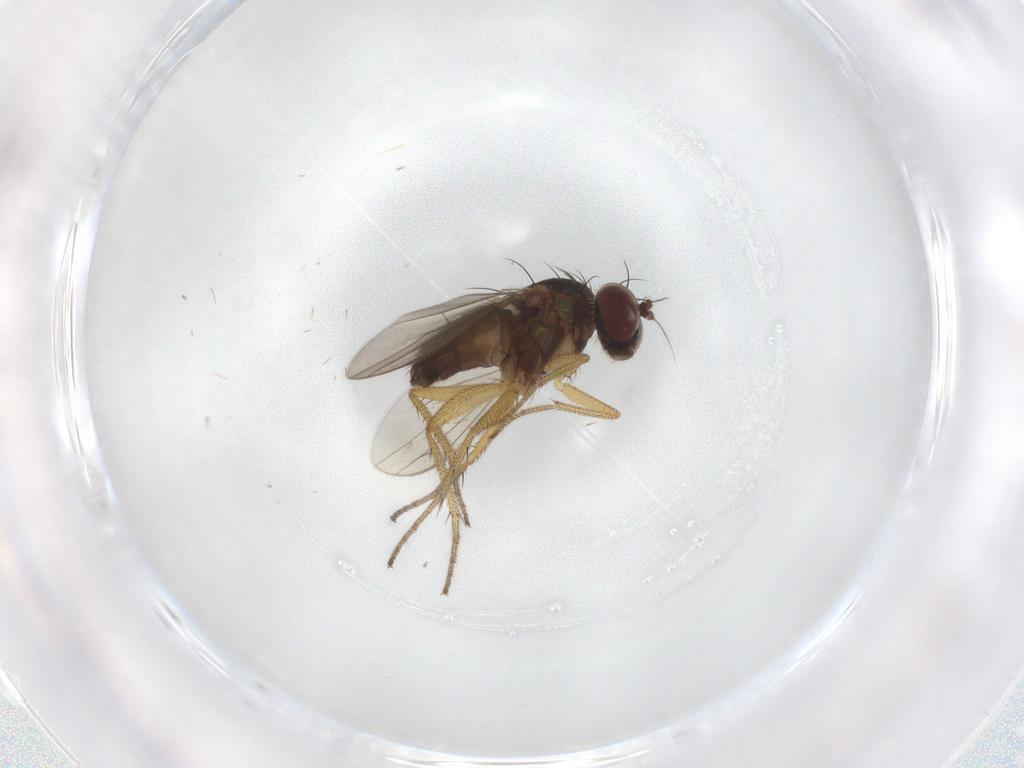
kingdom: Animalia
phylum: Arthropoda
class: Insecta
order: Diptera
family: Dolichopodidae
